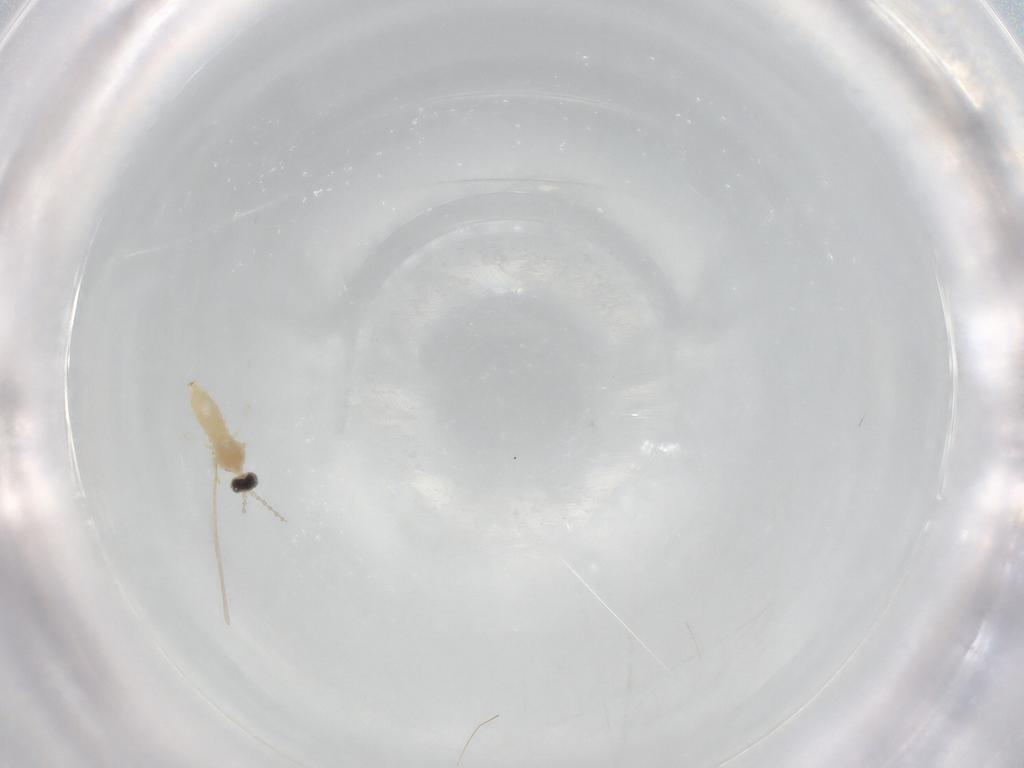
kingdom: Animalia
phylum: Arthropoda
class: Insecta
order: Diptera
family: Cecidomyiidae
